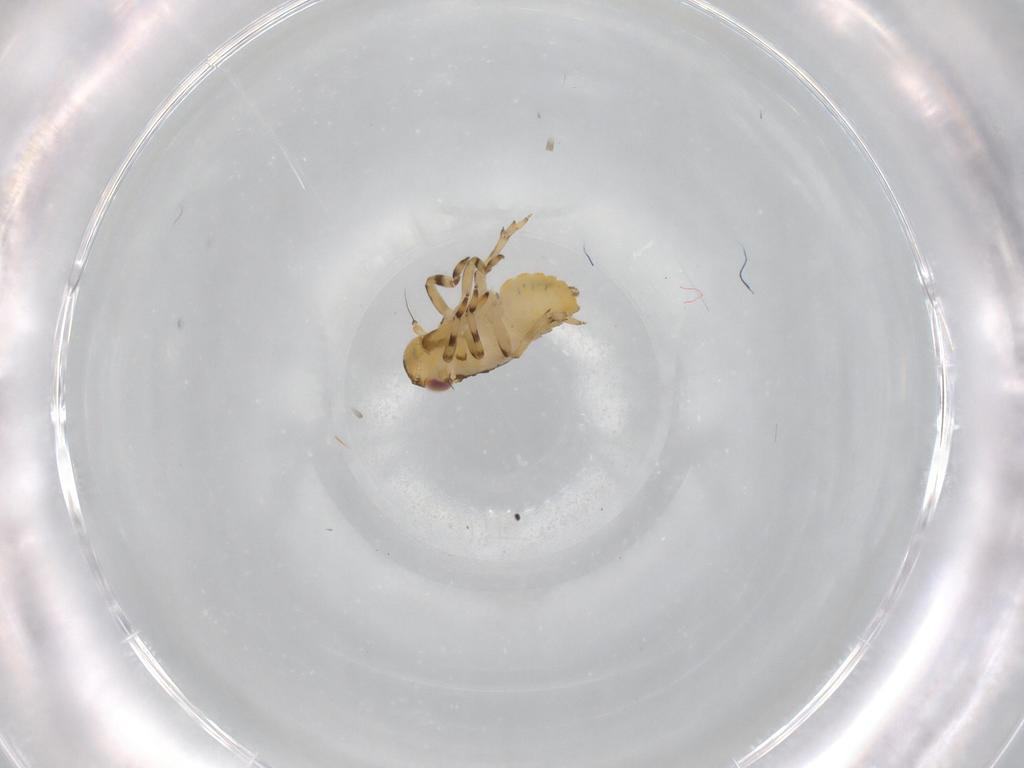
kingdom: Animalia
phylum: Arthropoda
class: Insecta
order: Hemiptera
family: Issidae
